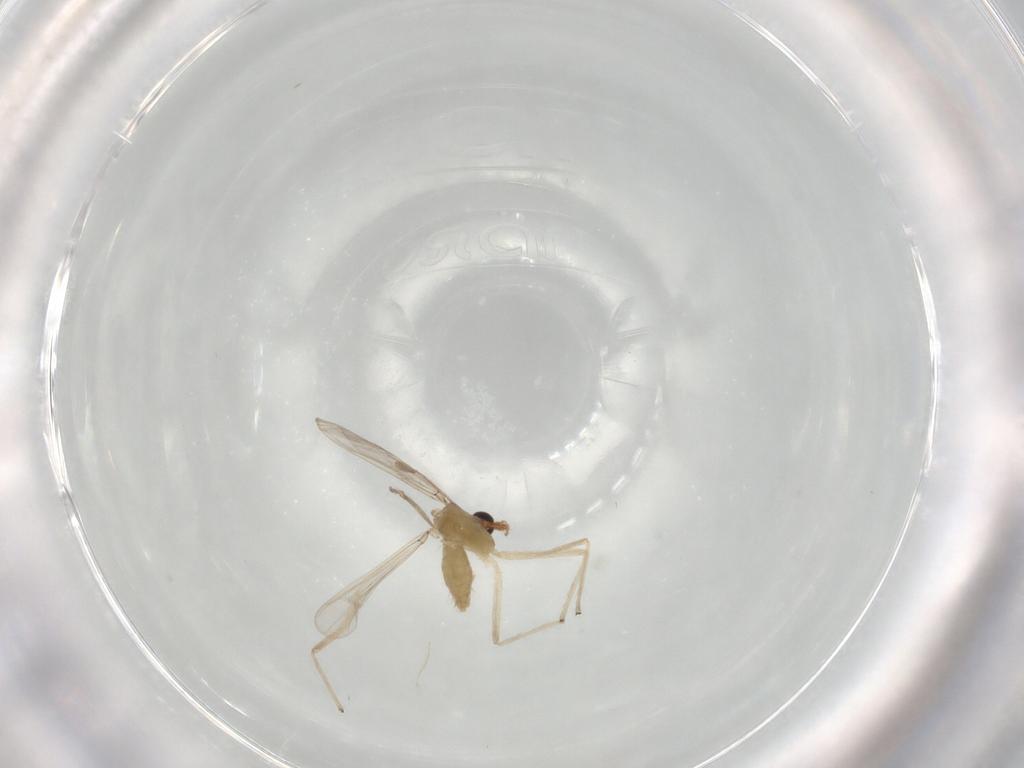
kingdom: Animalia
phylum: Arthropoda
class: Insecta
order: Diptera
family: Chironomidae
